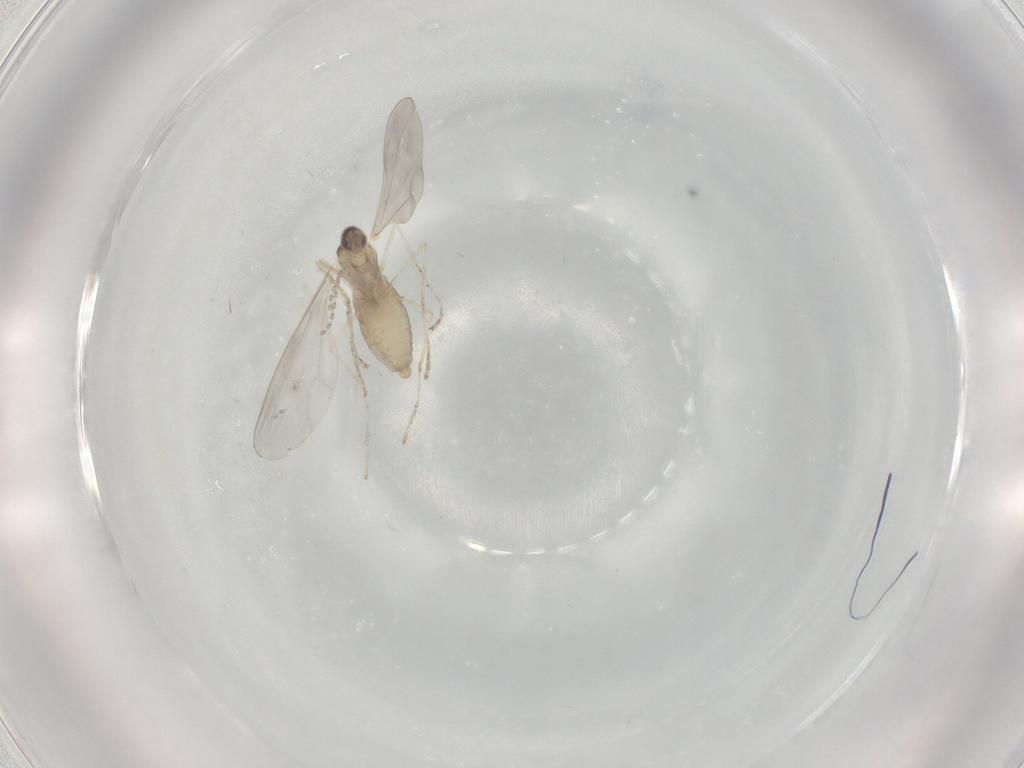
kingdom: Animalia
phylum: Arthropoda
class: Insecta
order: Diptera
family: Cecidomyiidae
